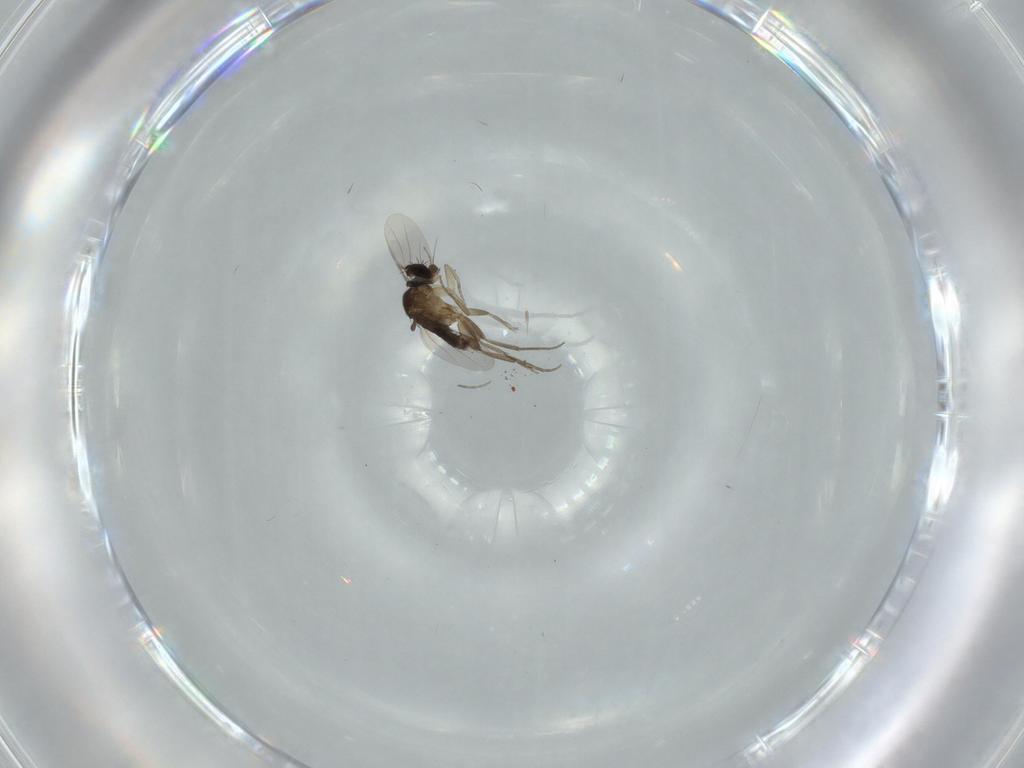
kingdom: Animalia
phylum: Arthropoda
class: Insecta
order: Diptera
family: Phoridae
